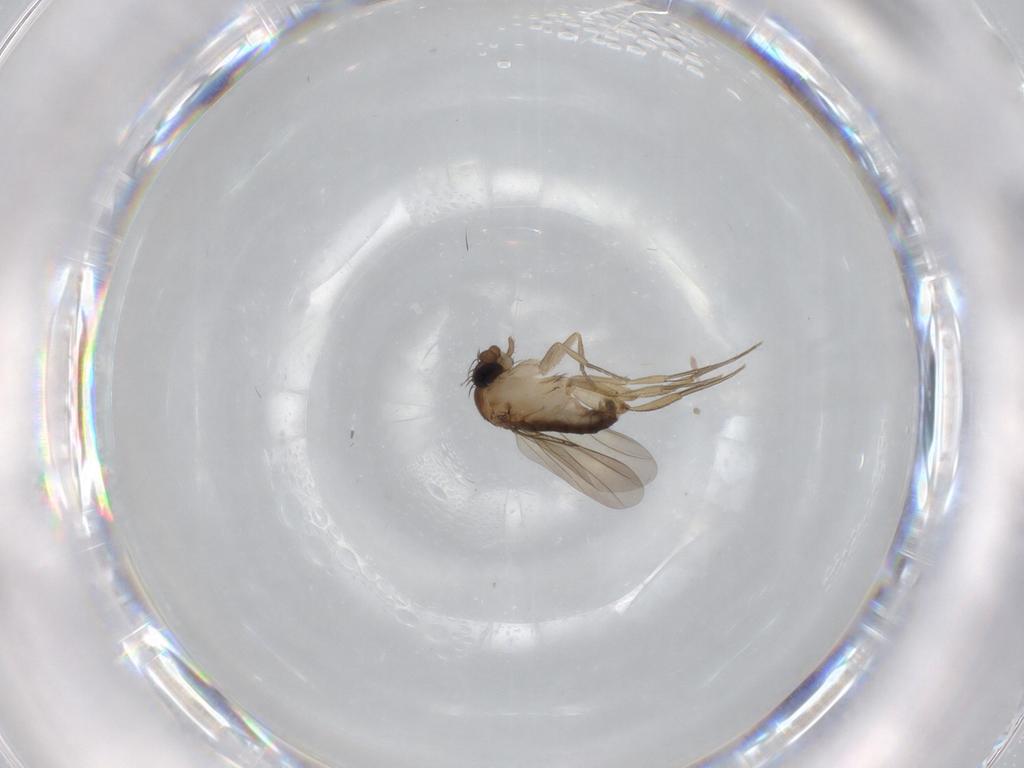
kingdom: Animalia
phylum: Arthropoda
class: Insecta
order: Diptera
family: Phoridae
